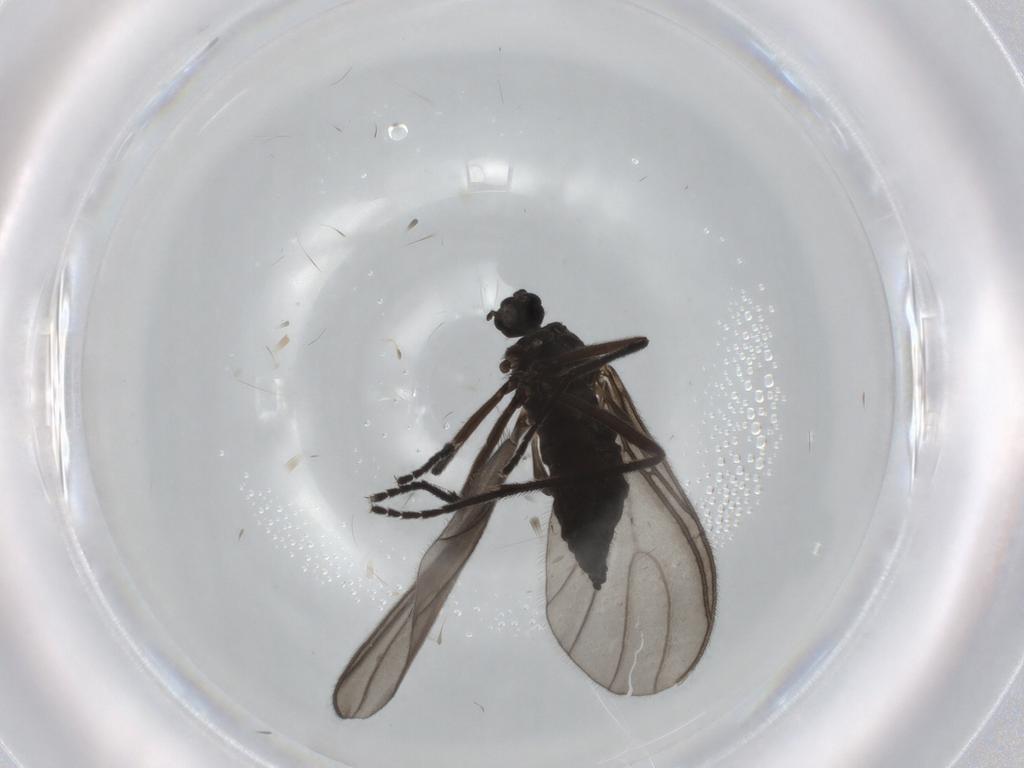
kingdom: Animalia
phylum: Arthropoda
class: Insecta
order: Diptera
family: Sciaridae
